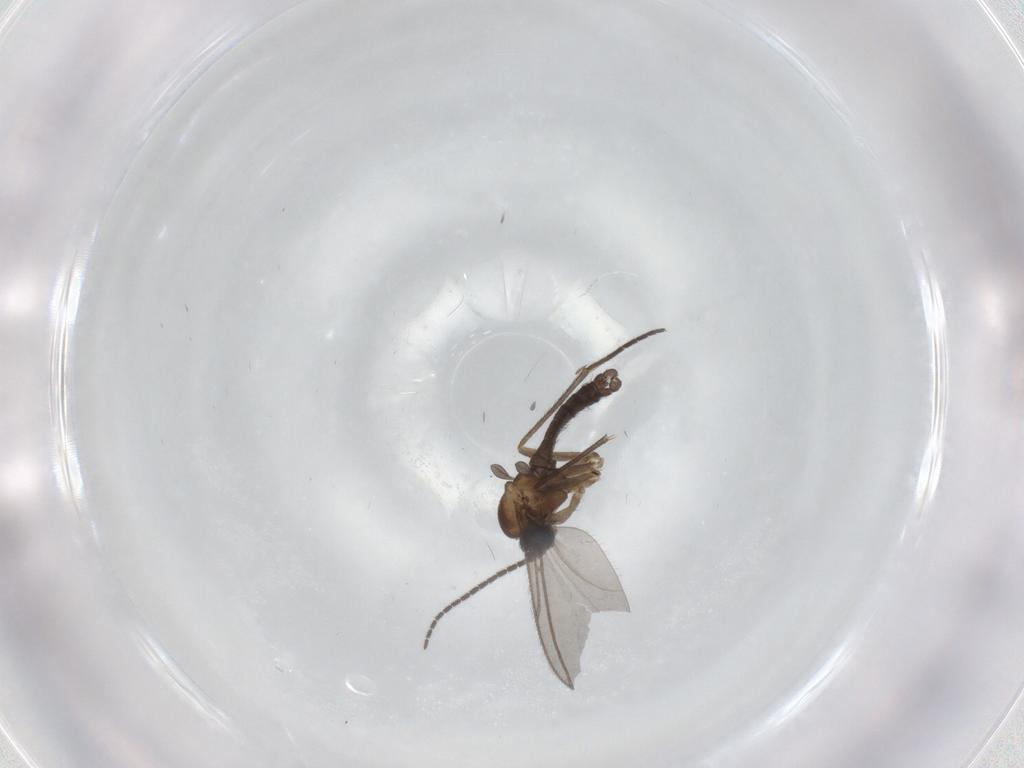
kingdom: Animalia
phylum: Arthropoda
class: Insecta
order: Diptera
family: Sciaridae
